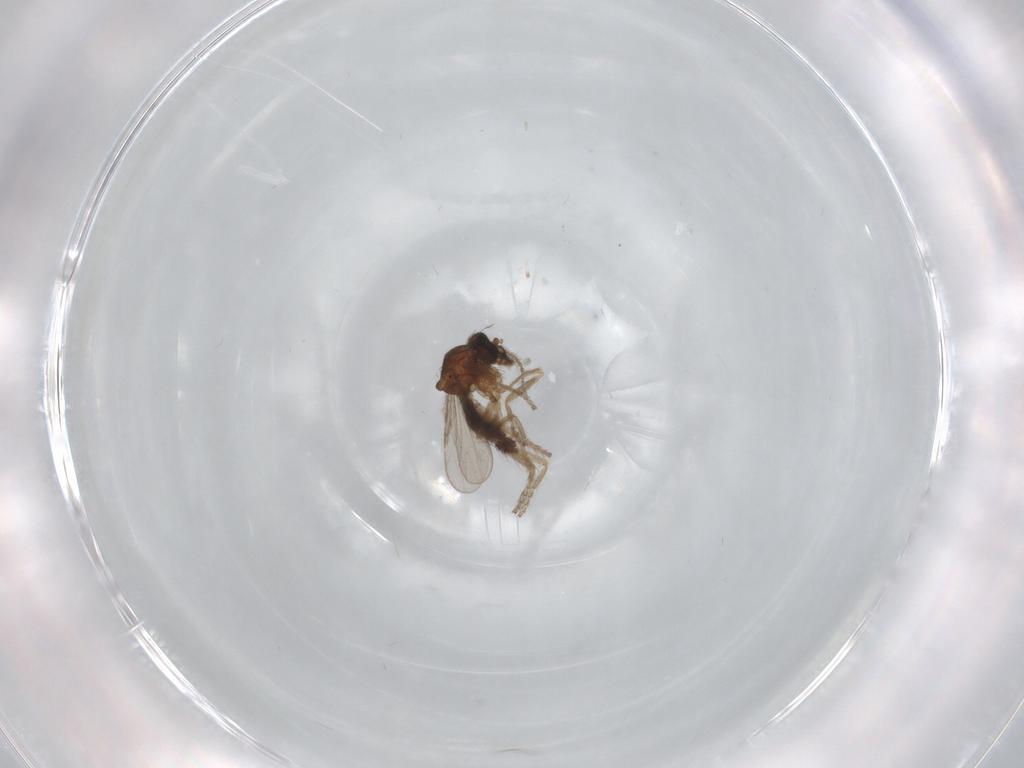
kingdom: Animalia
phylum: Arthropoda
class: Insecta
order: Diptera
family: Ceratopogonidae
